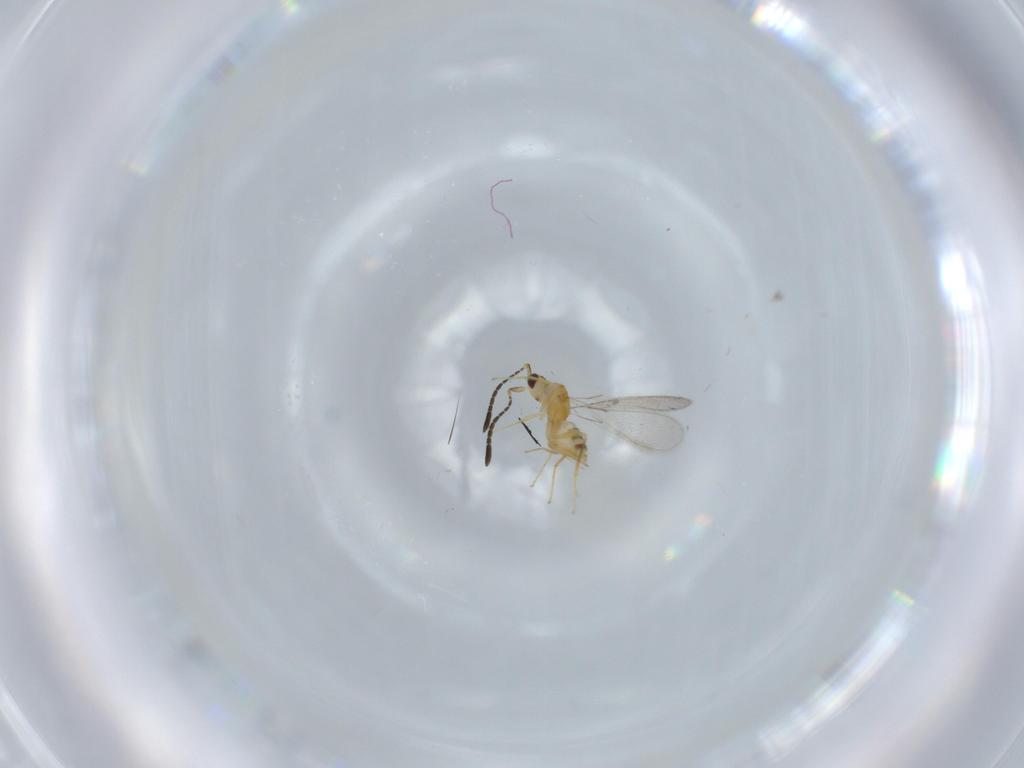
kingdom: Animalia
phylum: Arthropoda
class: Insecta
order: Hymenoptera
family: Mymaridae
